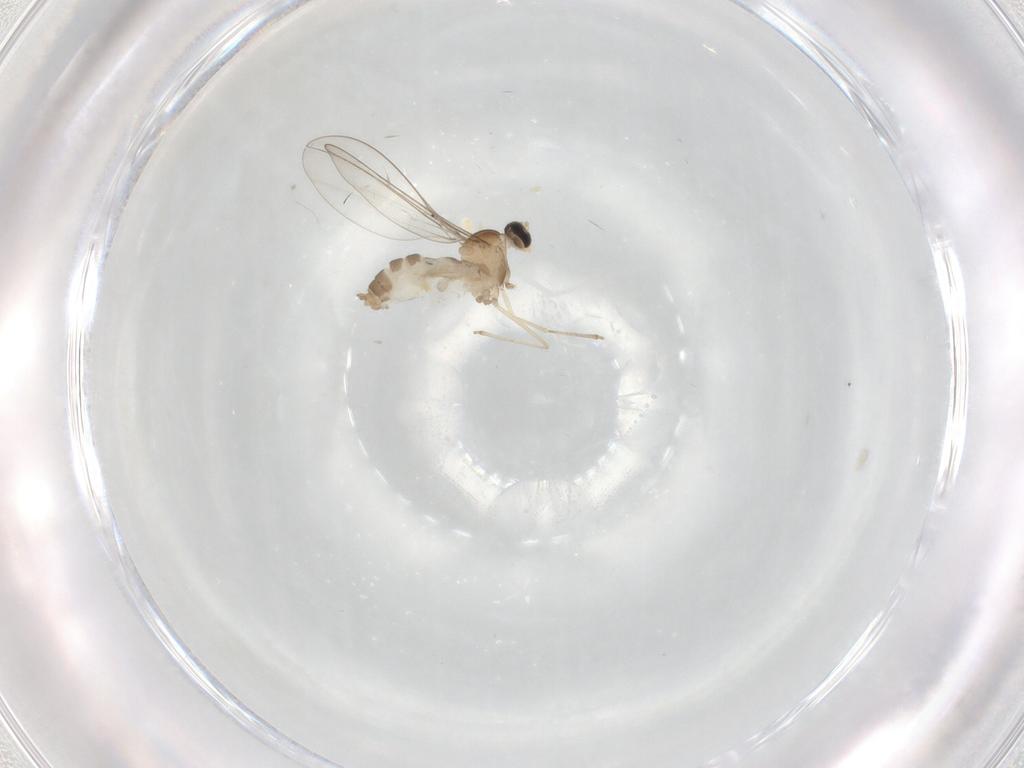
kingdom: Animalia
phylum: Arthropoda
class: Insecta
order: Diptera
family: Cecidomyiidae
